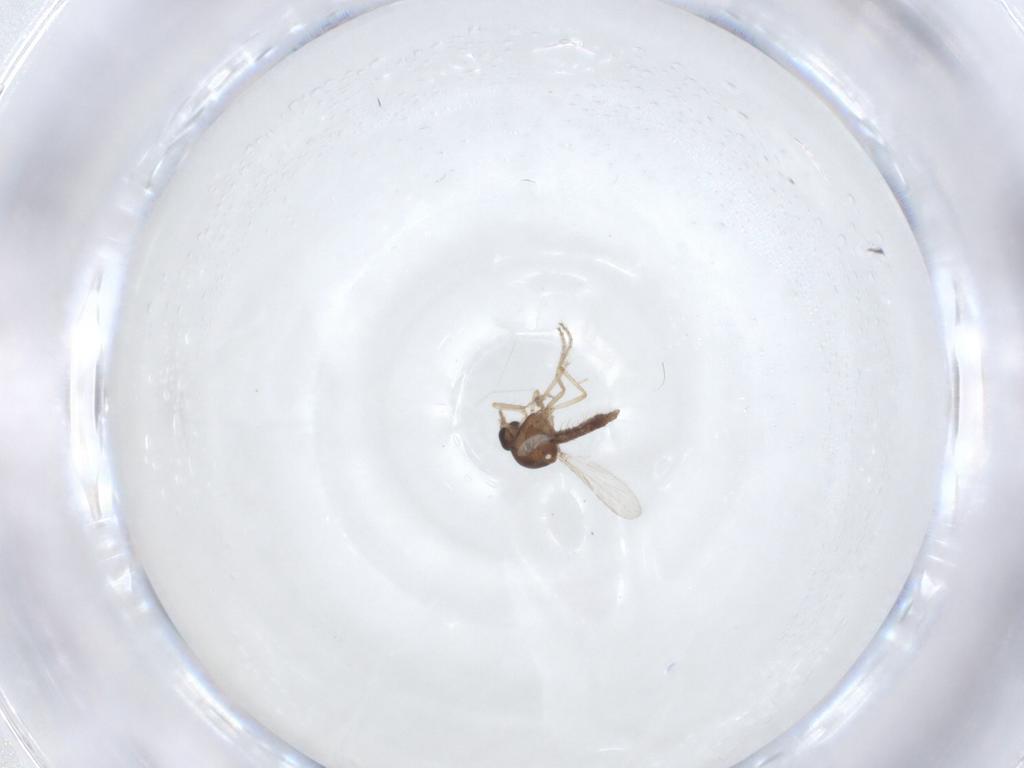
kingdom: Animalia
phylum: Arthropoda
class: Insecta
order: Diptera
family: Ceratopogonidae
